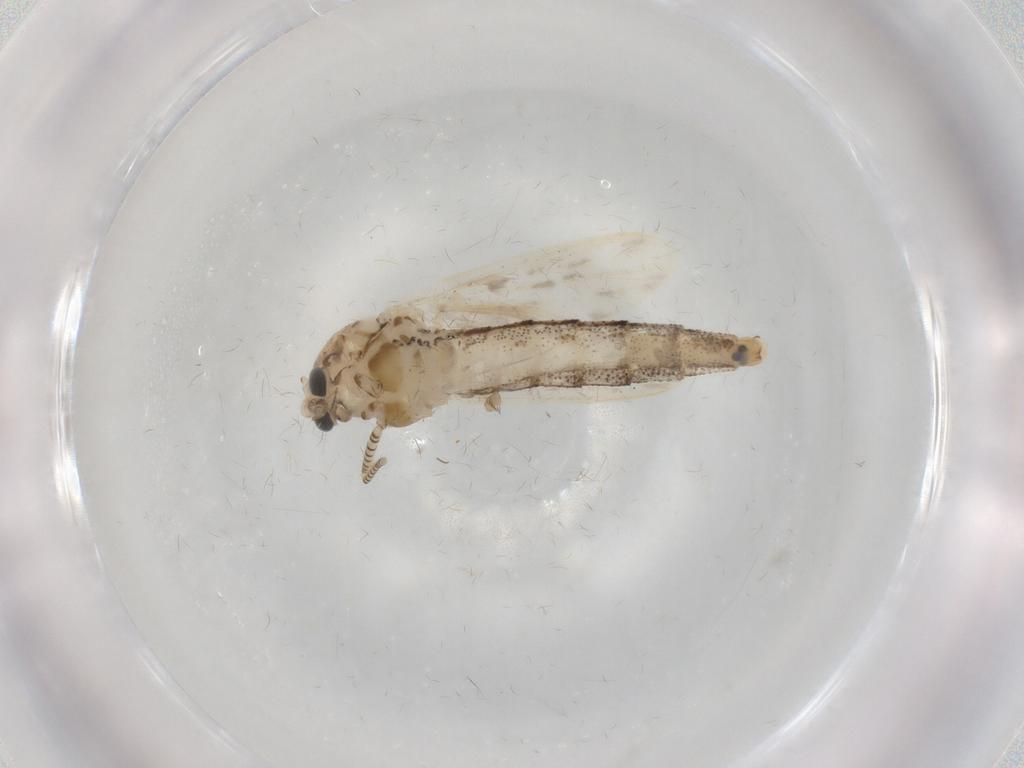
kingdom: Animalia
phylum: Arthropoda
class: Insecta
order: Diptera
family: Chaoboridae
